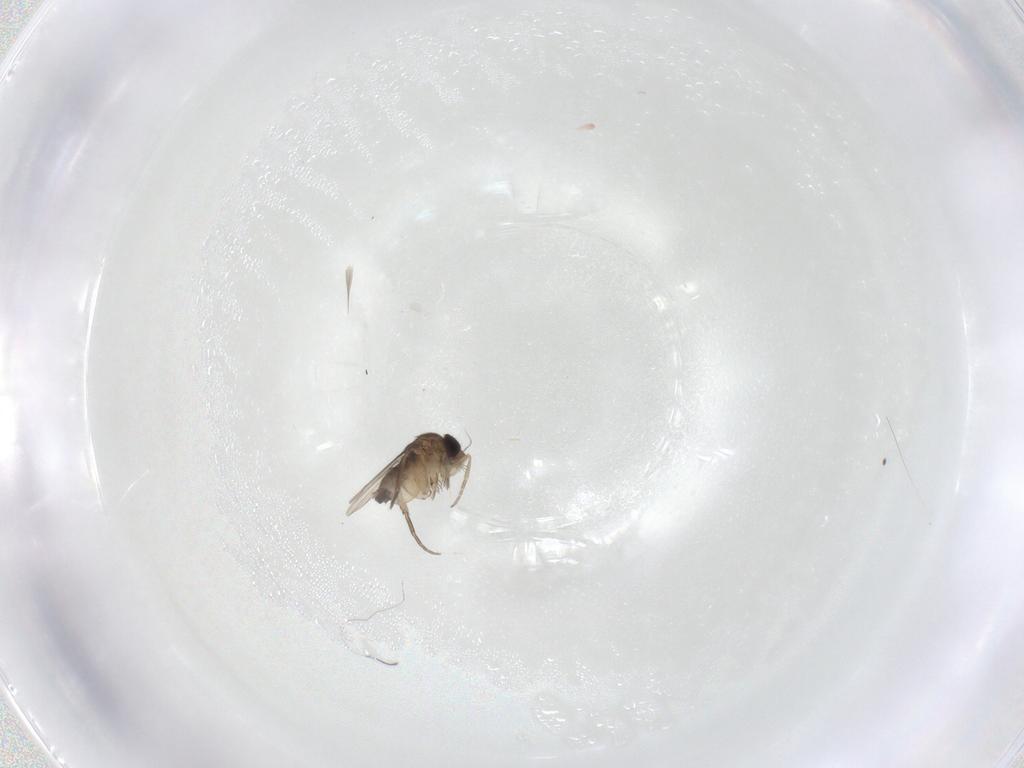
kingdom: Animalia
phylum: Arthropoda
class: Insecta
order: Diptera
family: Phoridae
